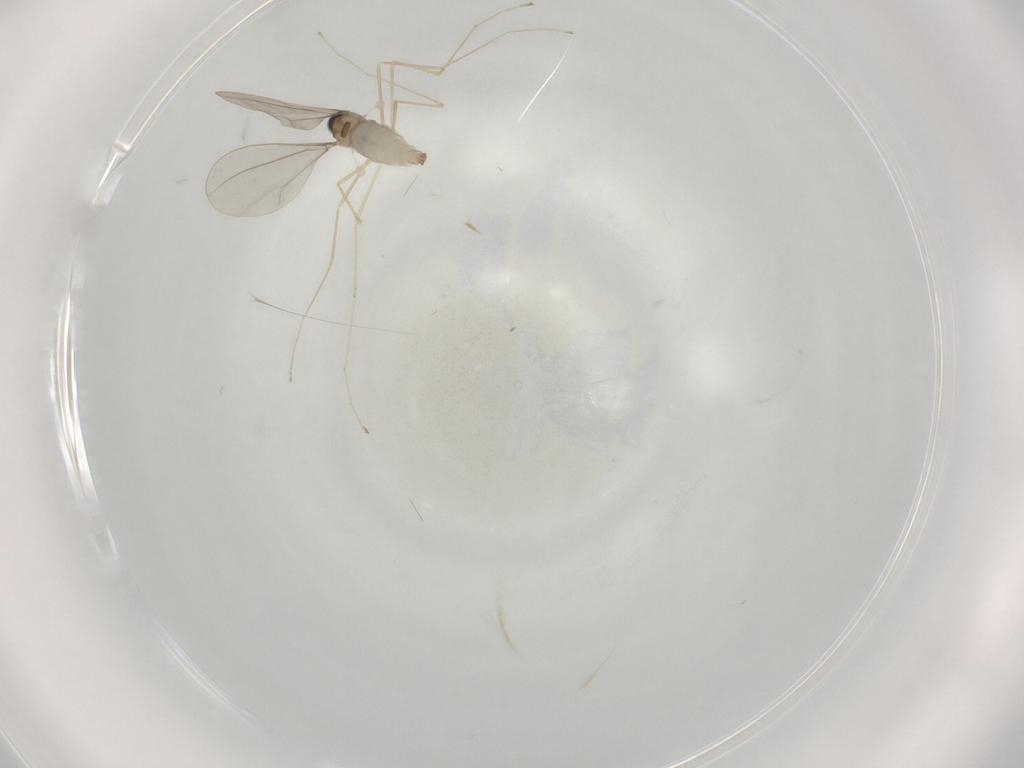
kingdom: Animalia
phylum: Arthropoda
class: Insecta
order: Diptera
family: Cecidomyiidae
